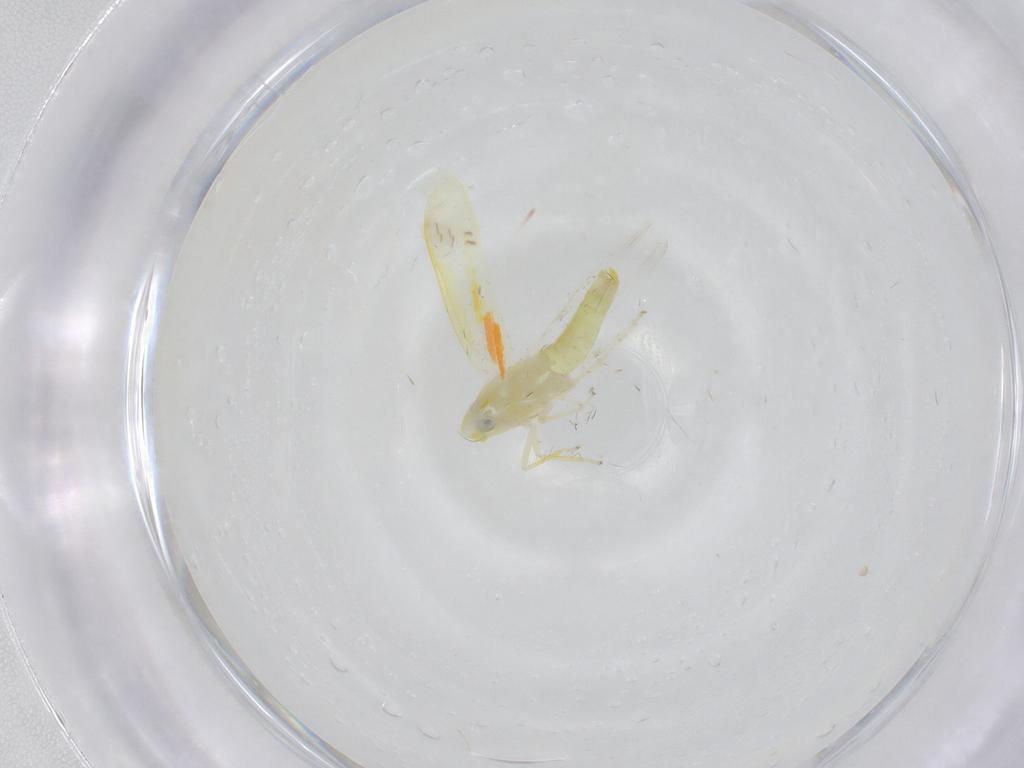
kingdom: Animalia
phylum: Arthropoda
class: Insecta
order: Hemiptera
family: Cicadellidae
